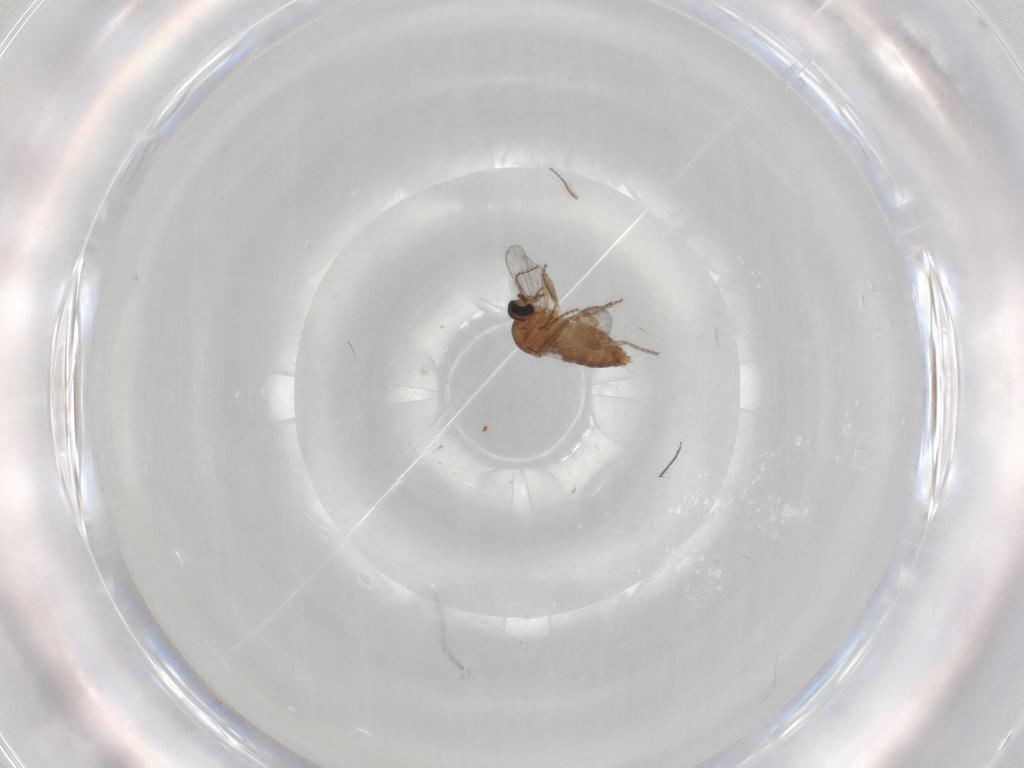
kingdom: Animalia
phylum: Arthropoda
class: Insecta
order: Diptera
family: Ceratopogonidae
